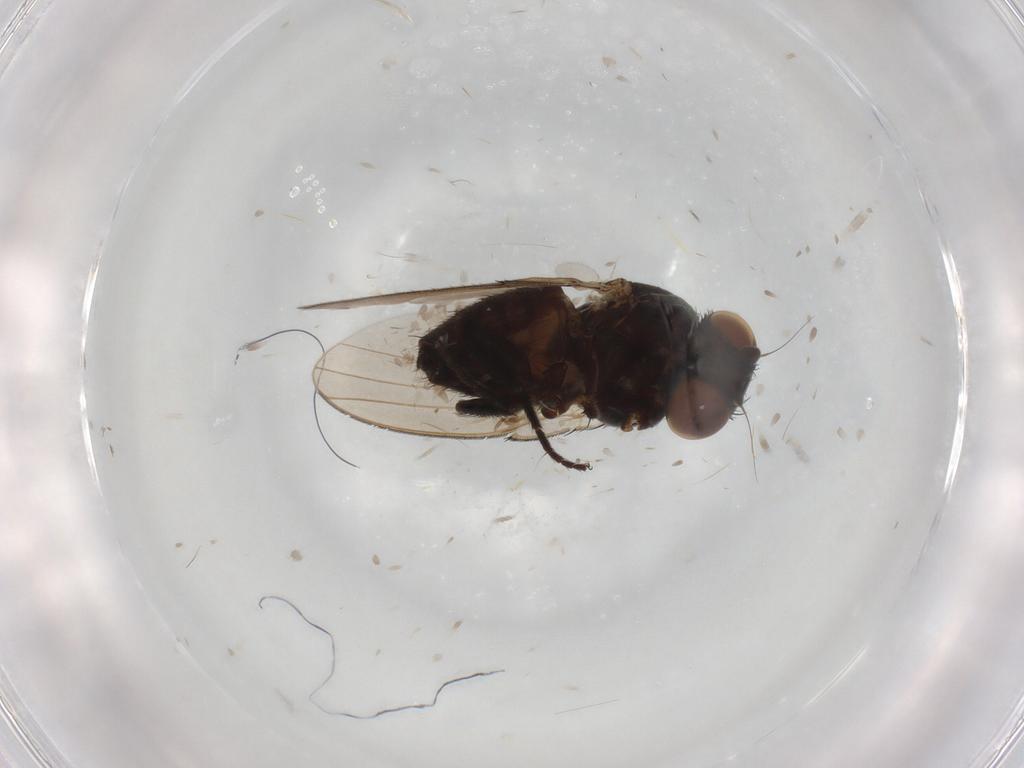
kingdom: Animalia
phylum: Arthropoda
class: Insecta
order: Diptera
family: Milichiidae
